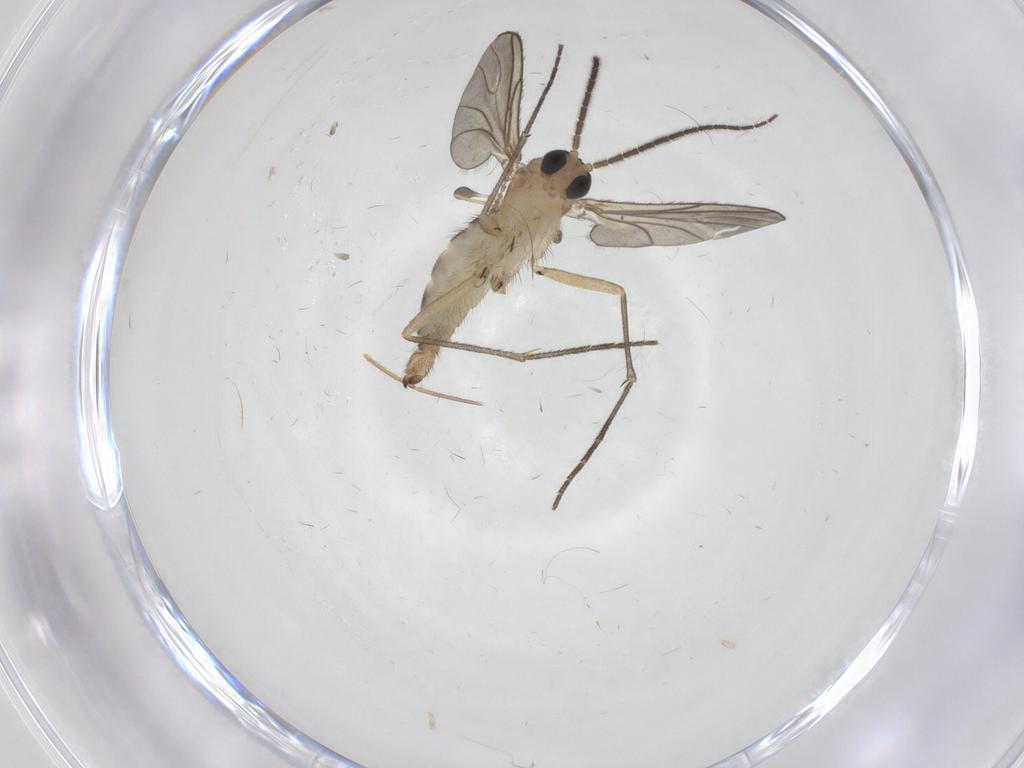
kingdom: Animalia
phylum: Arthropoda
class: Insecta
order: Diptera
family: Sciaridae
